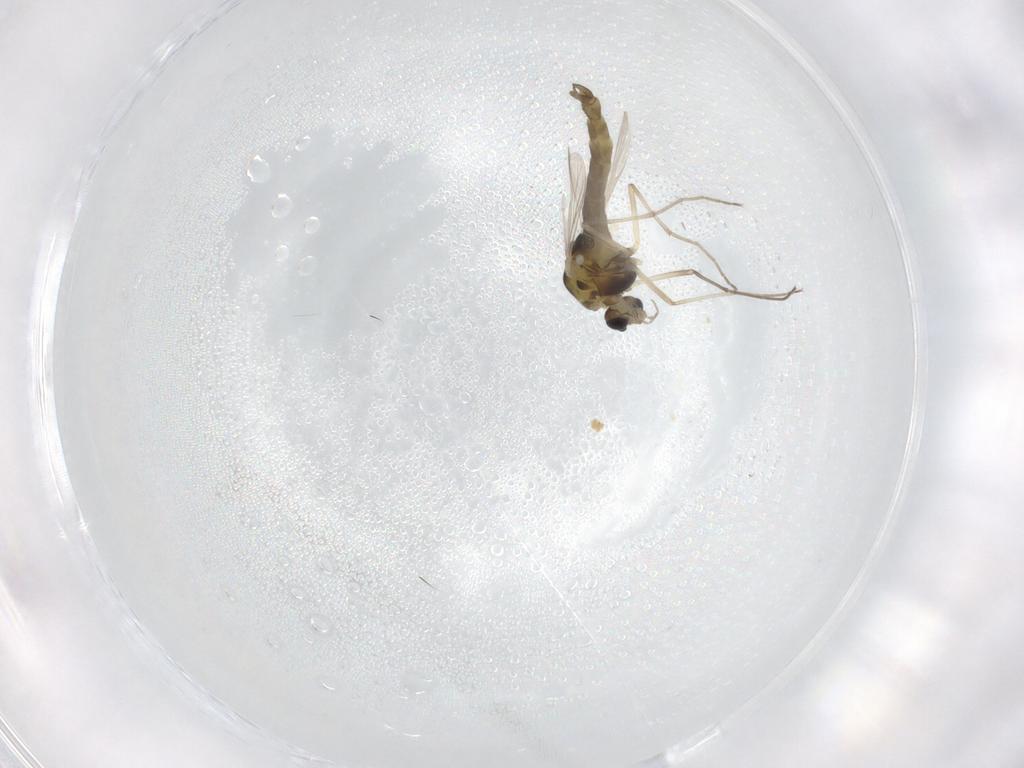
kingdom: Animalia
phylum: Arthropoda
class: Insecta
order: Diptera
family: Chironomidae
